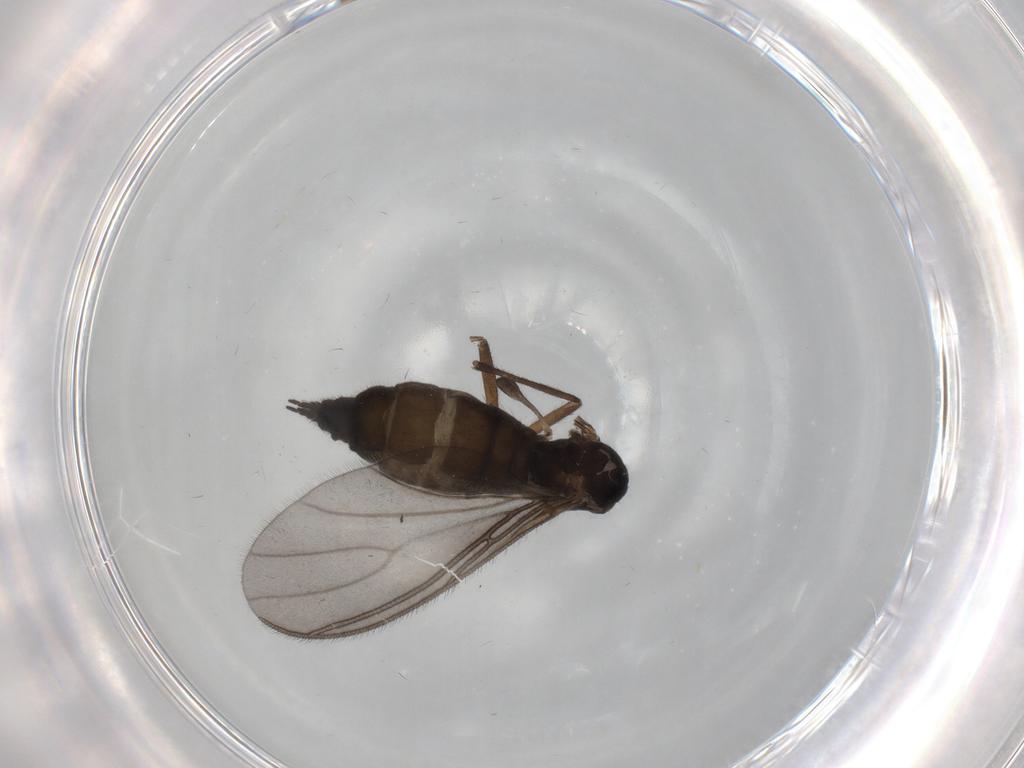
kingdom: Animalia
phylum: Arthropoda
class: Insecta
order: Diptera
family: Sciaridae
